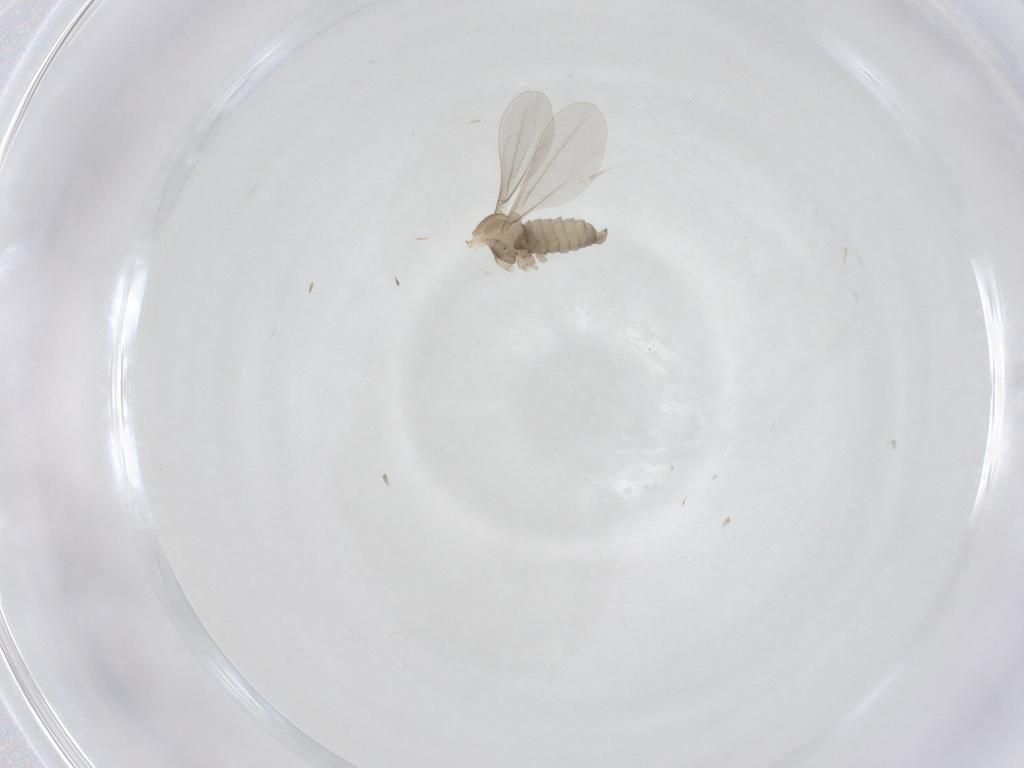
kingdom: Animalia
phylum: Arthropoda
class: Insecta
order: Diptera
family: Cecidomyiidae
